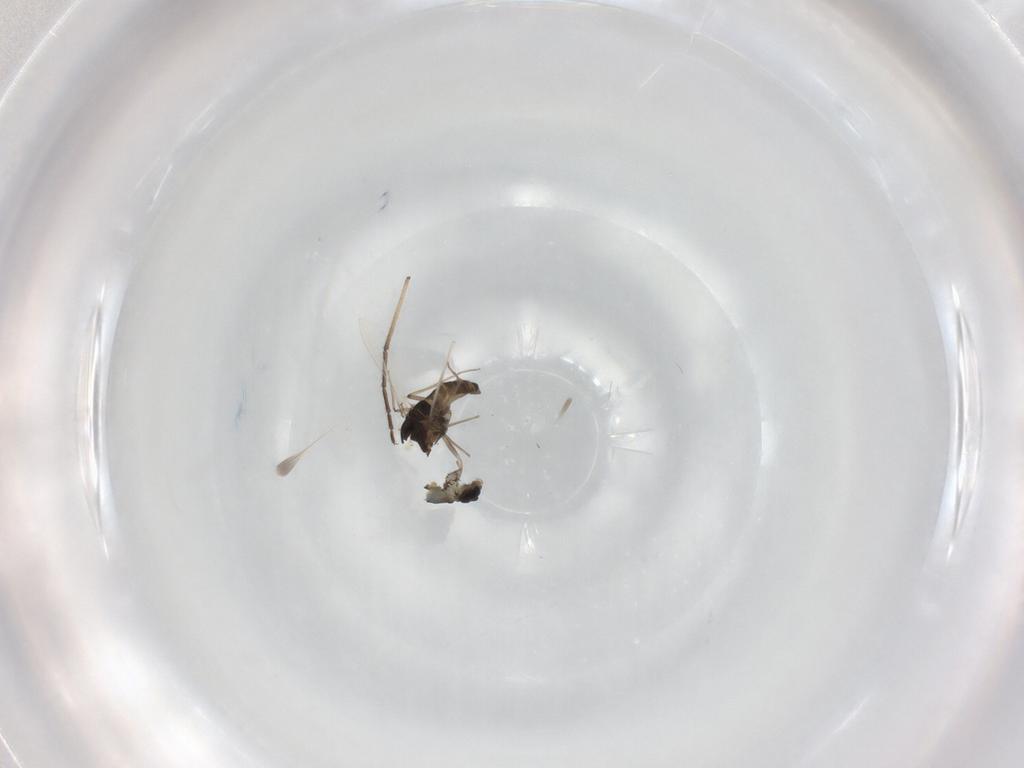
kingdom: Animalia
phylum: Arthropoda
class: Insecta
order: Diptera
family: Chironomidae
